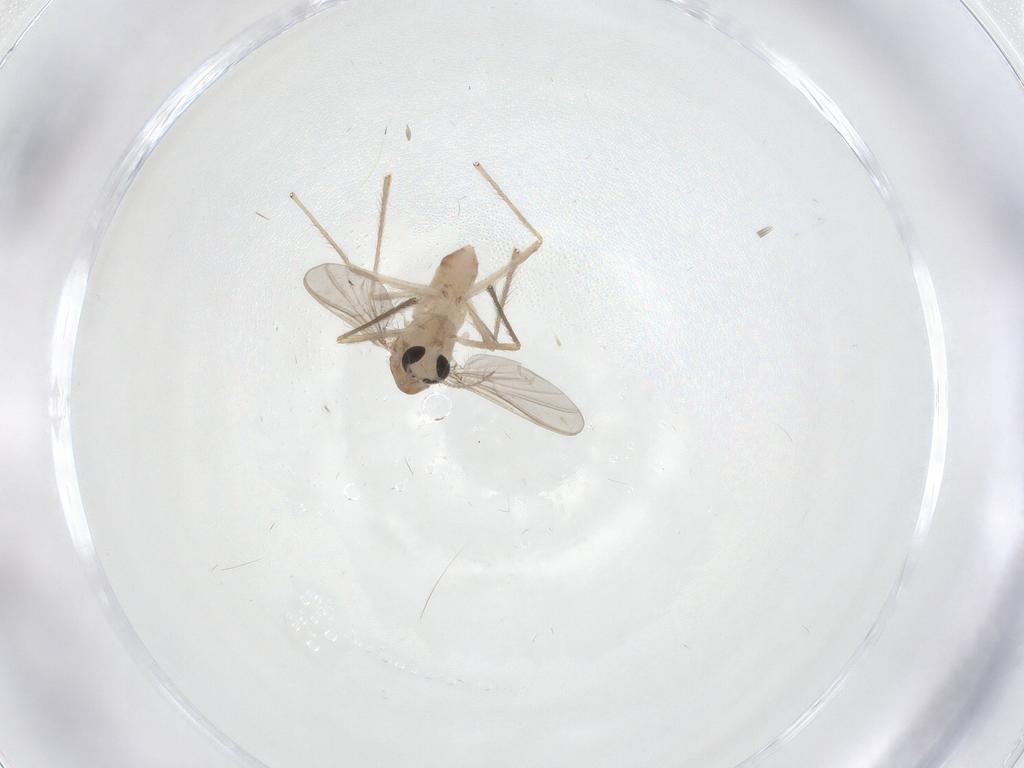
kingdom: Animalia
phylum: Arthropoda
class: Insecta
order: Diptera
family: Chironomidae
